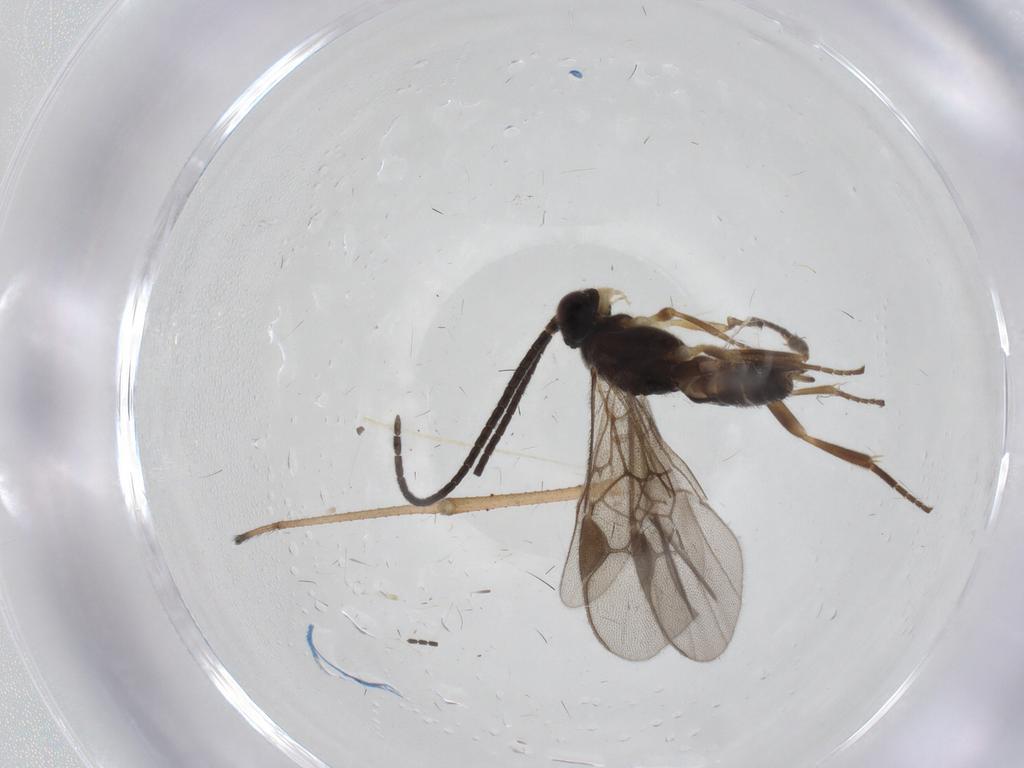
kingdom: Animalia
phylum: Arthropoda
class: Insecta
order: Hymenoptera
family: Braconidae
